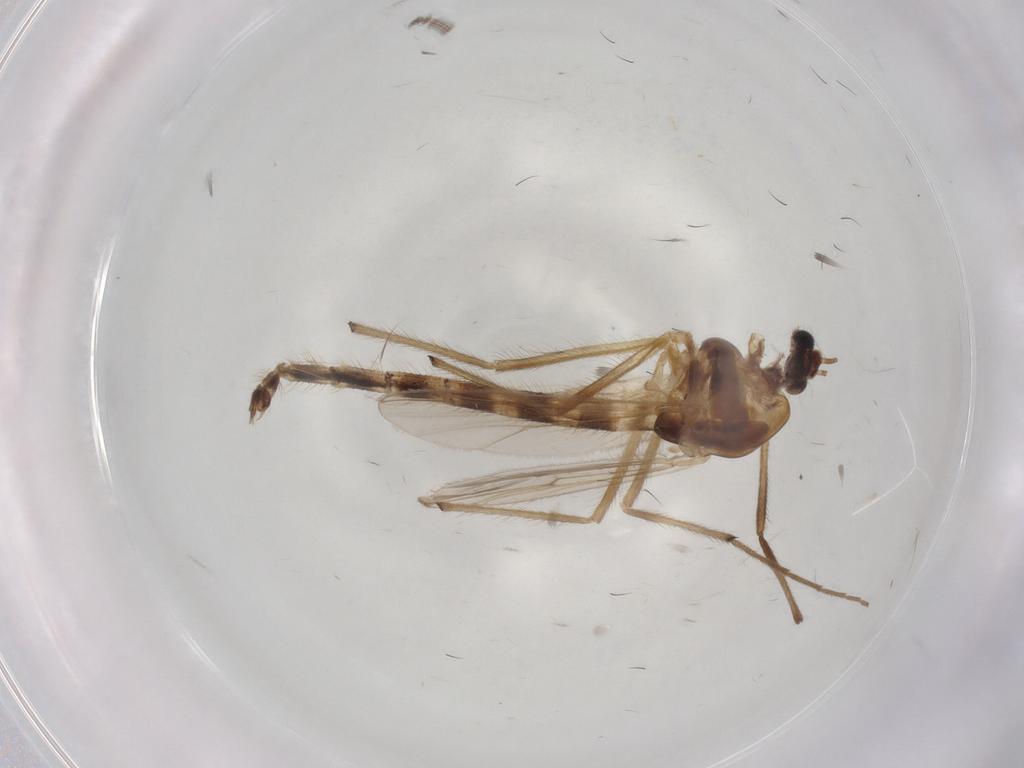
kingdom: Animalia
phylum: Arthropoda
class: Insecta
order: Diptera
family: Chironomidae
